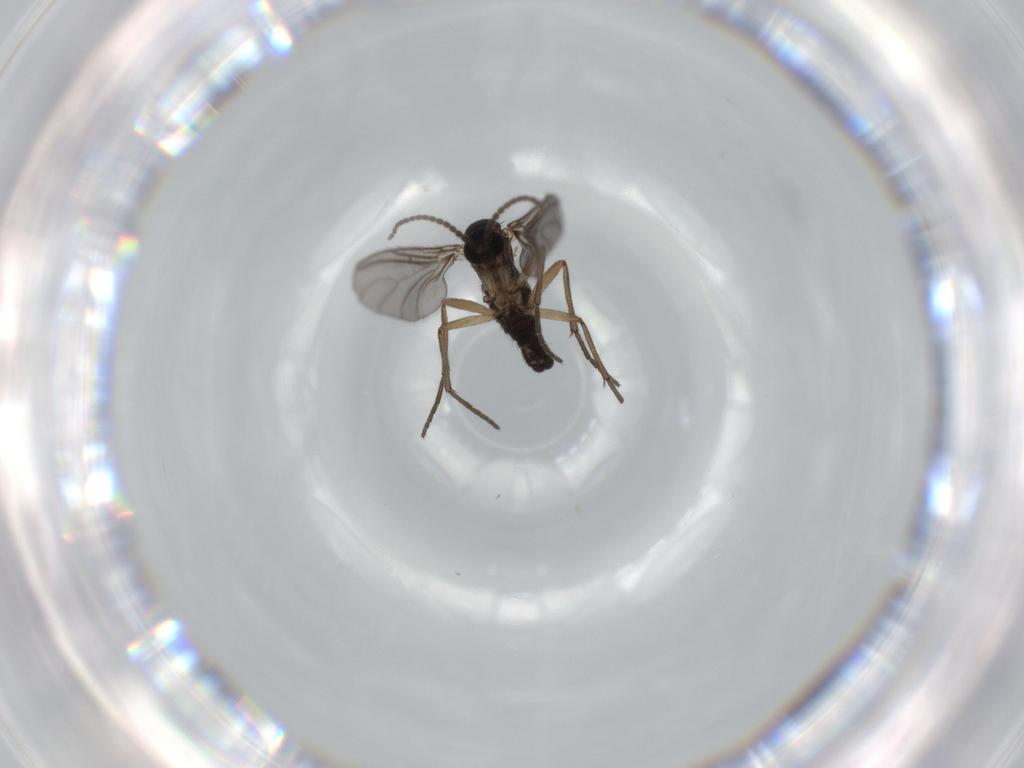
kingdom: Animalia
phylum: Arthropoda
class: Insecta
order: Diptera
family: Sciaridae
